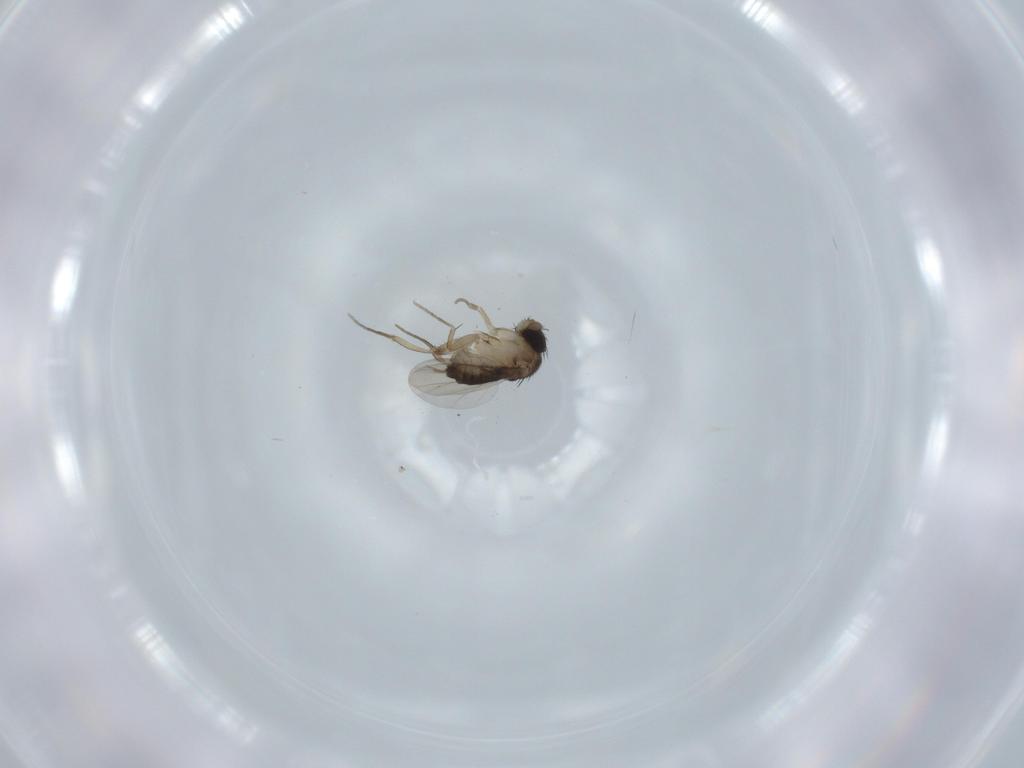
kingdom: Animalia
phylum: Arthropoda
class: Insecta
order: Diptera
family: Phoridae
